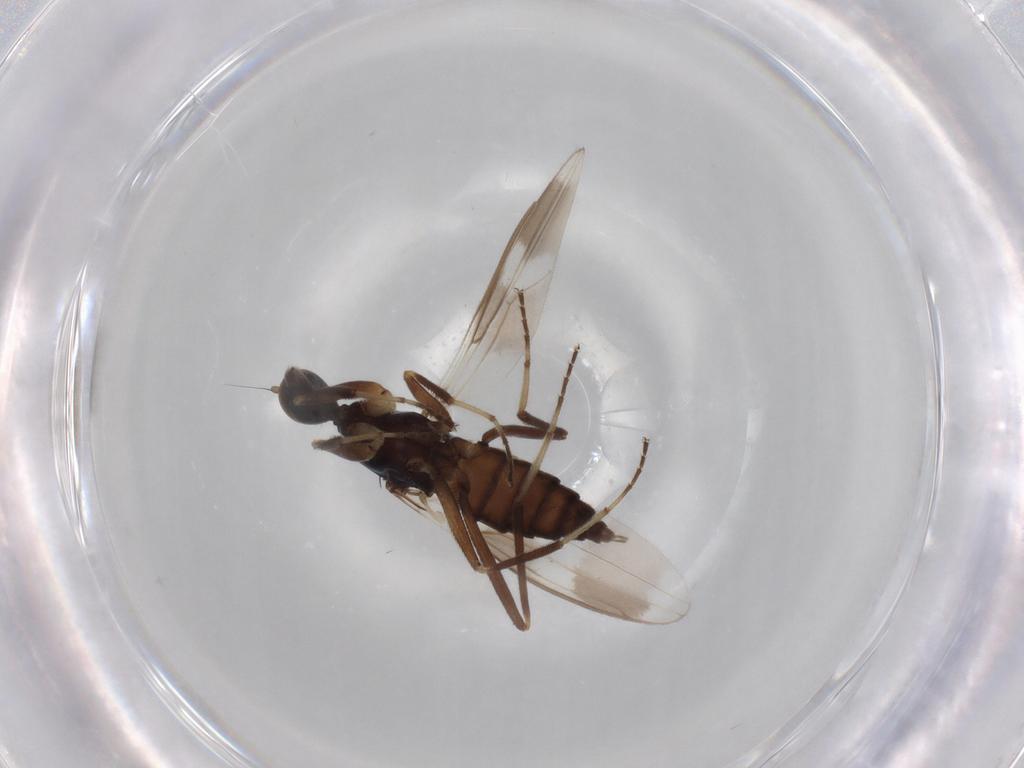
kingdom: Animalia
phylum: Arthropoda
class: Insecta
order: Diptera
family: Hybotidae
